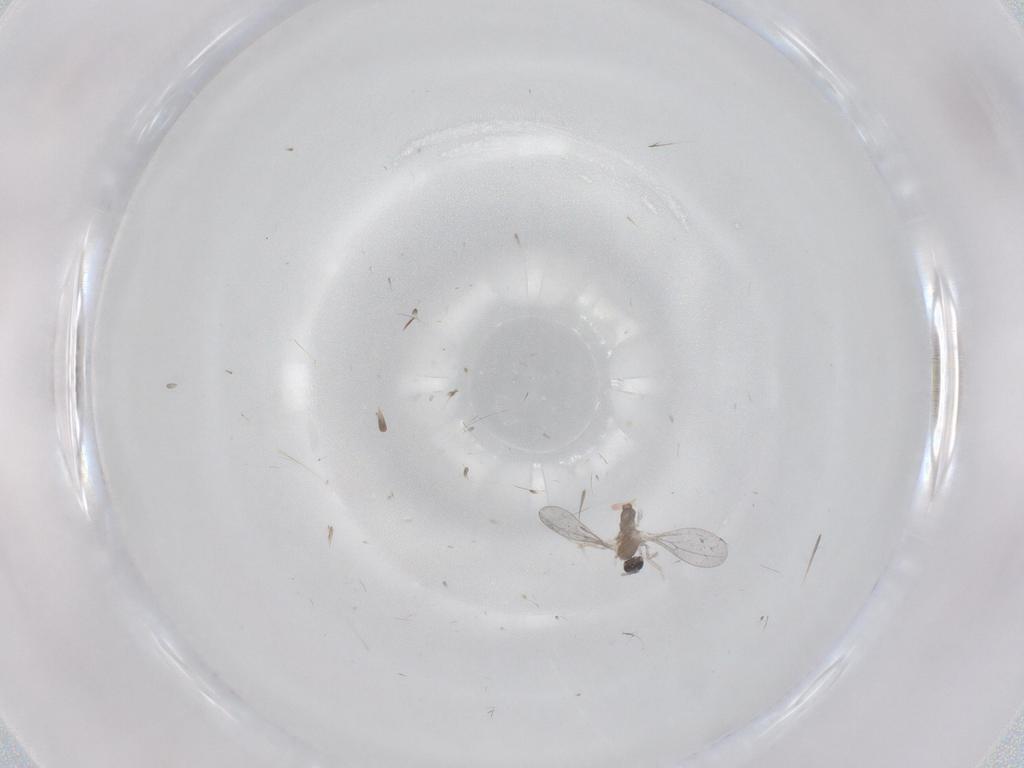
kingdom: Animalia
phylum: Arthropoda
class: Insecta
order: Diptera
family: Cecidomyiidae
